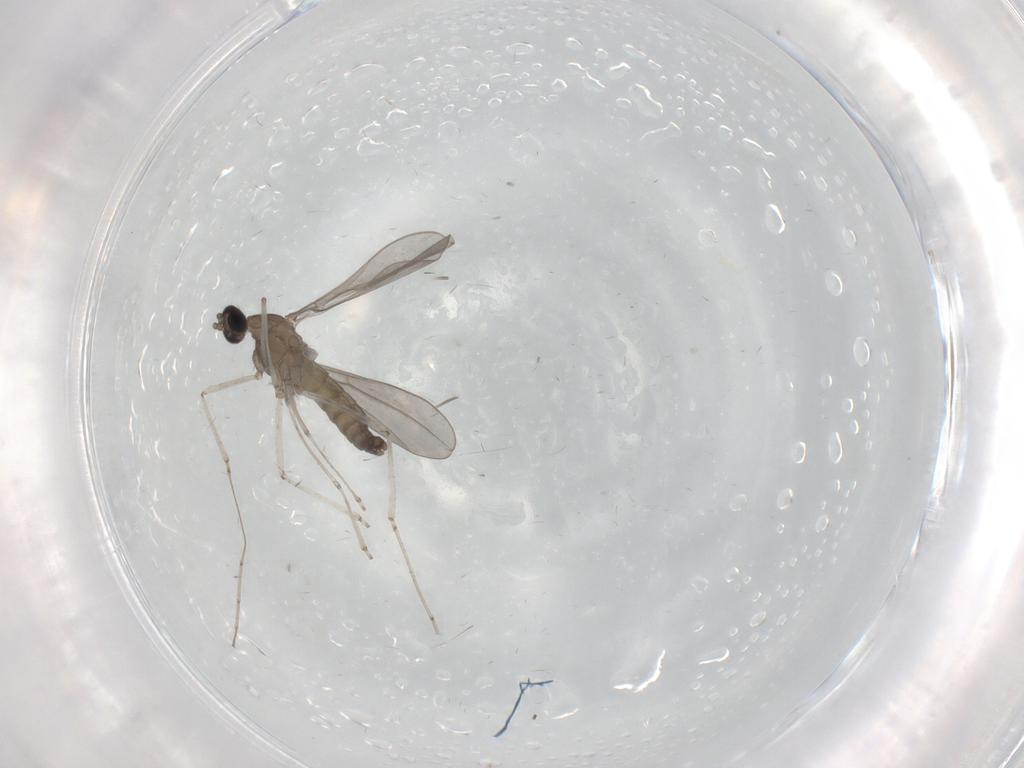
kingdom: Animalia
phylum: Arthropoda
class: Insecta
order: Diptera
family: Cecidomyiidae
